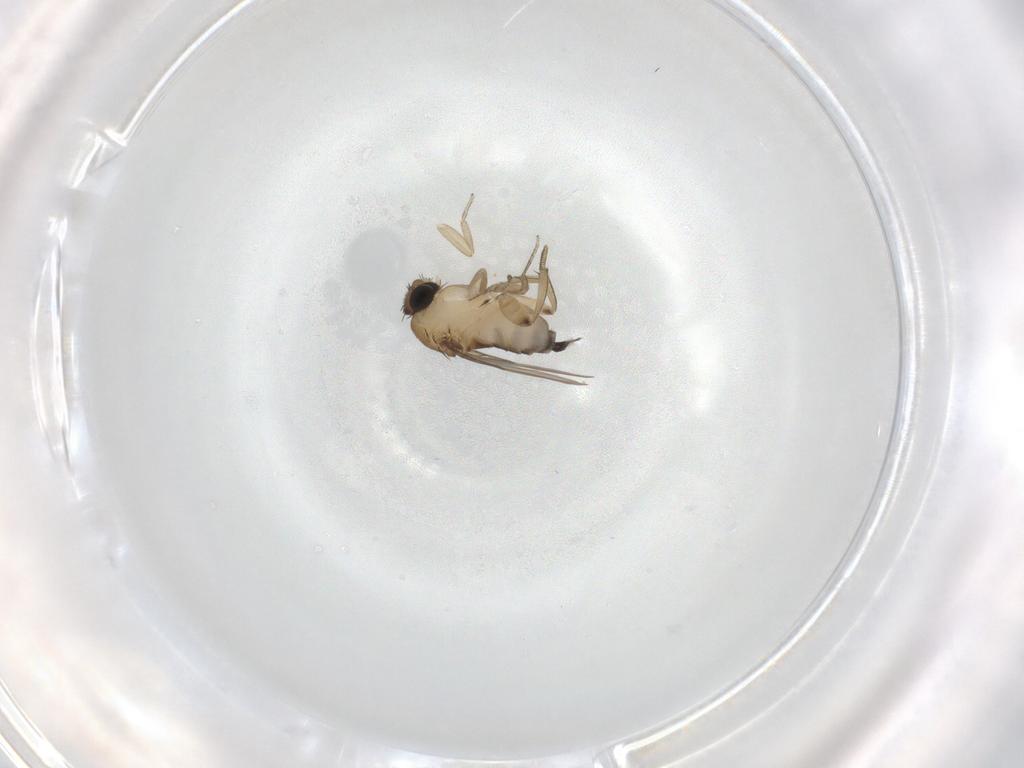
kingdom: Animalia
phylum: Arthropoda
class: Insecta
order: Diptera
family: Phoridae
